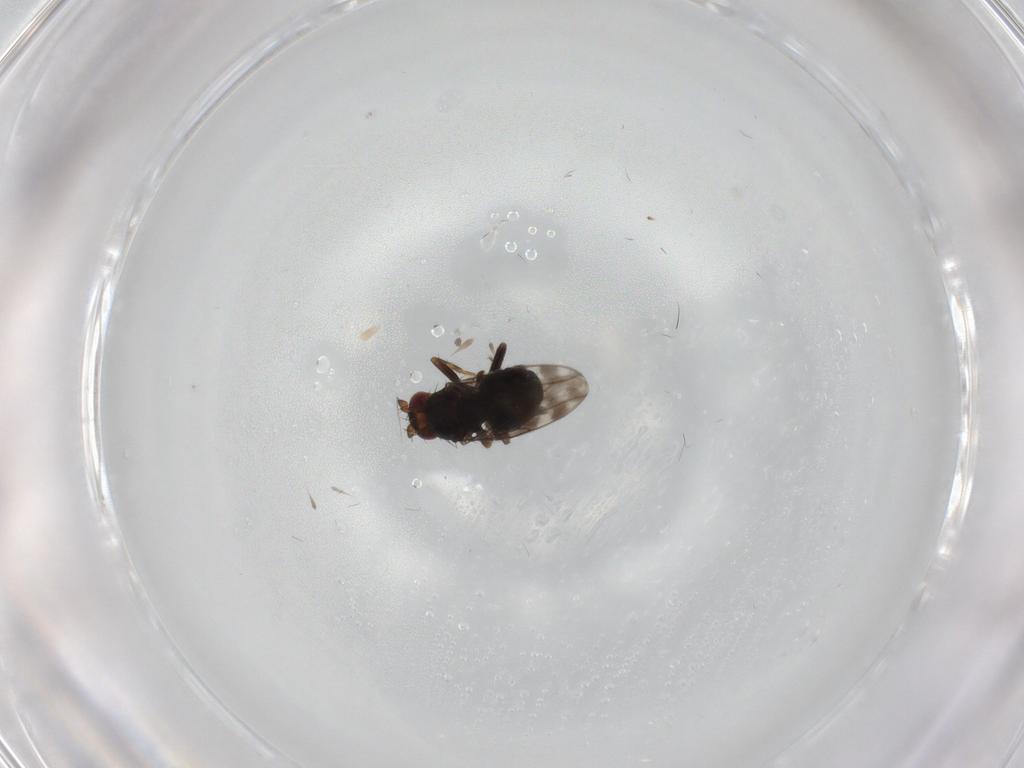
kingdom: Animalia
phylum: Arthropoda
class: Insecta
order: Diptera
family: Sphaeroceridae
